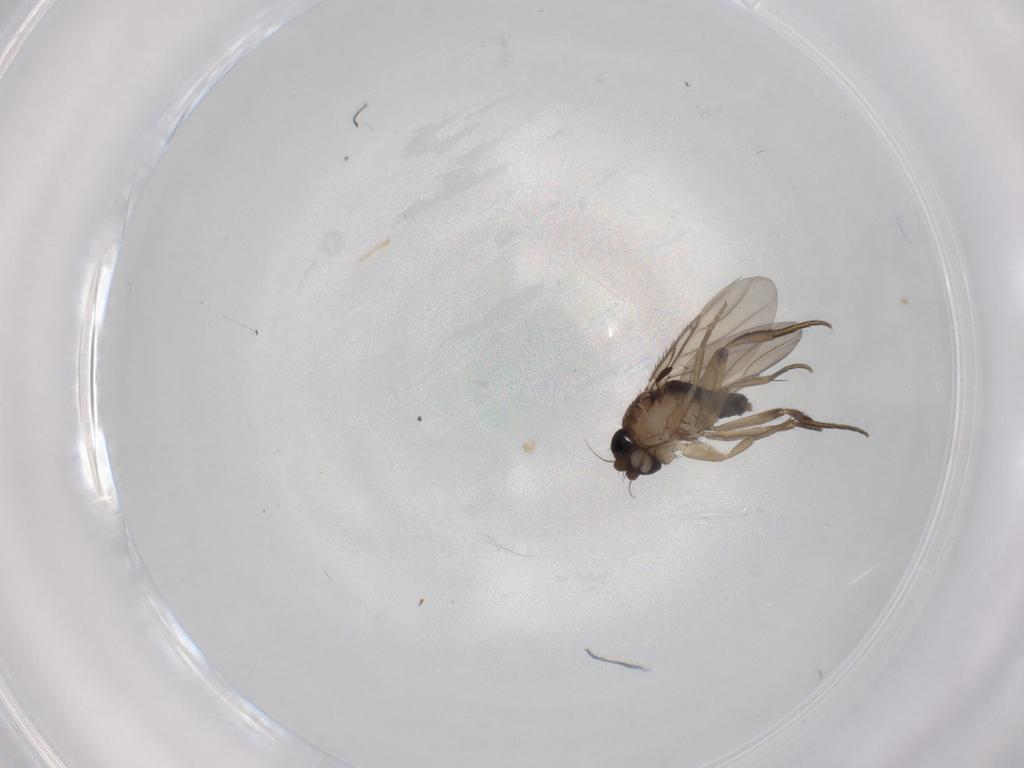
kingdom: Animalia
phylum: Arthropoda
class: Insecta
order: Diptera
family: Phoridae
